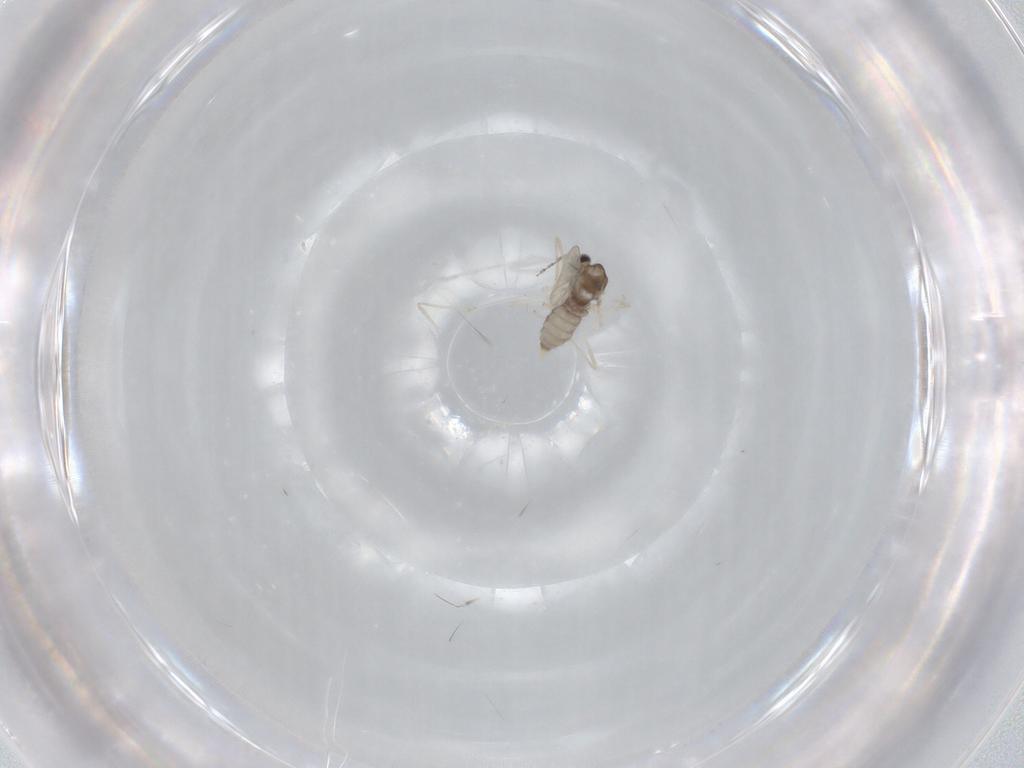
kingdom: Animalia
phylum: Arthropoda
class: Insecta
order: Diptera
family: Cecidomyiidae
